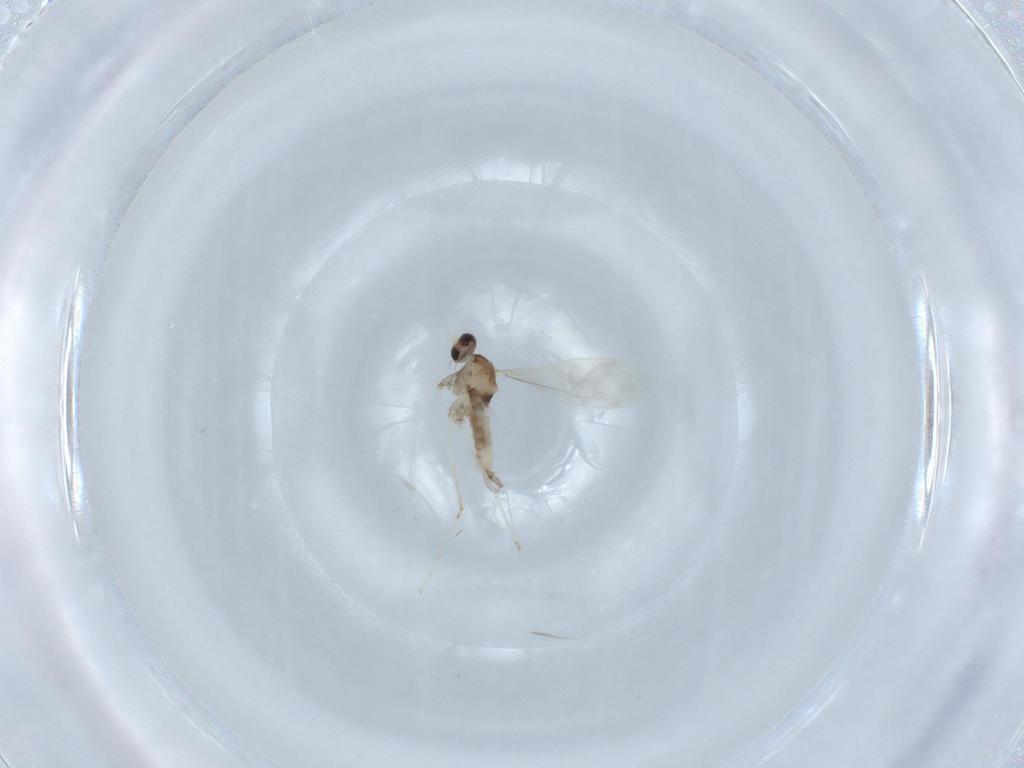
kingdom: Animalia
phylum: Arthropoda
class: Insecta
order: Diptera
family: Cecidomyiidae
